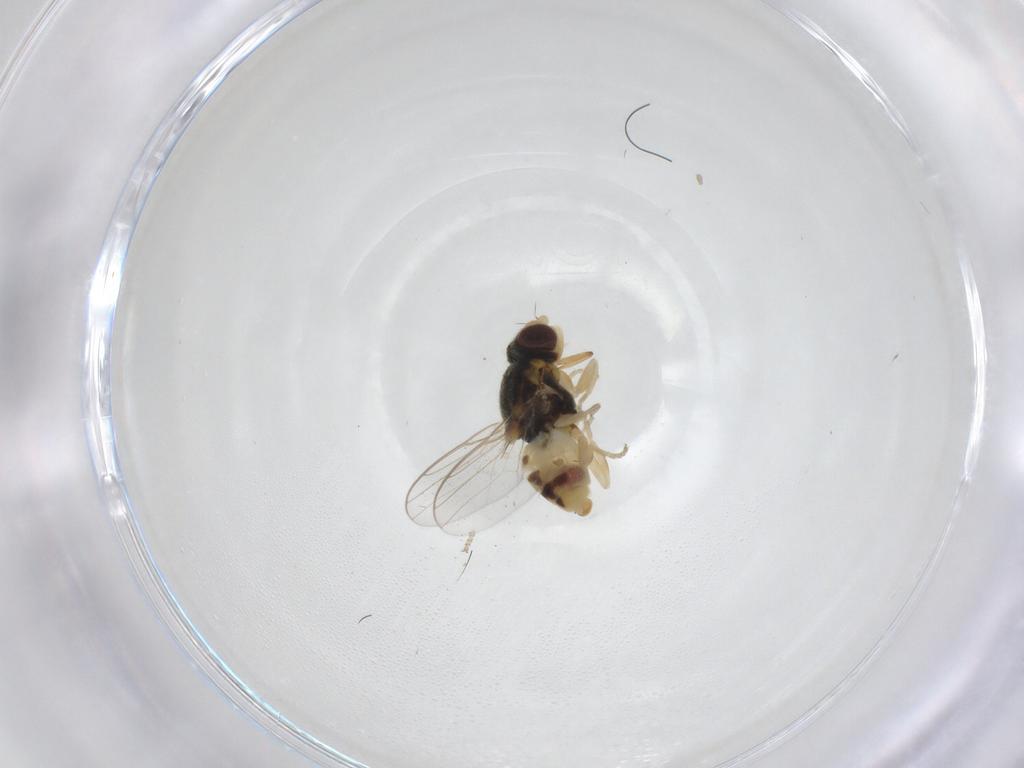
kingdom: Animalia
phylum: Arthropoda
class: Insecta
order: Diptera
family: Chloropidae
